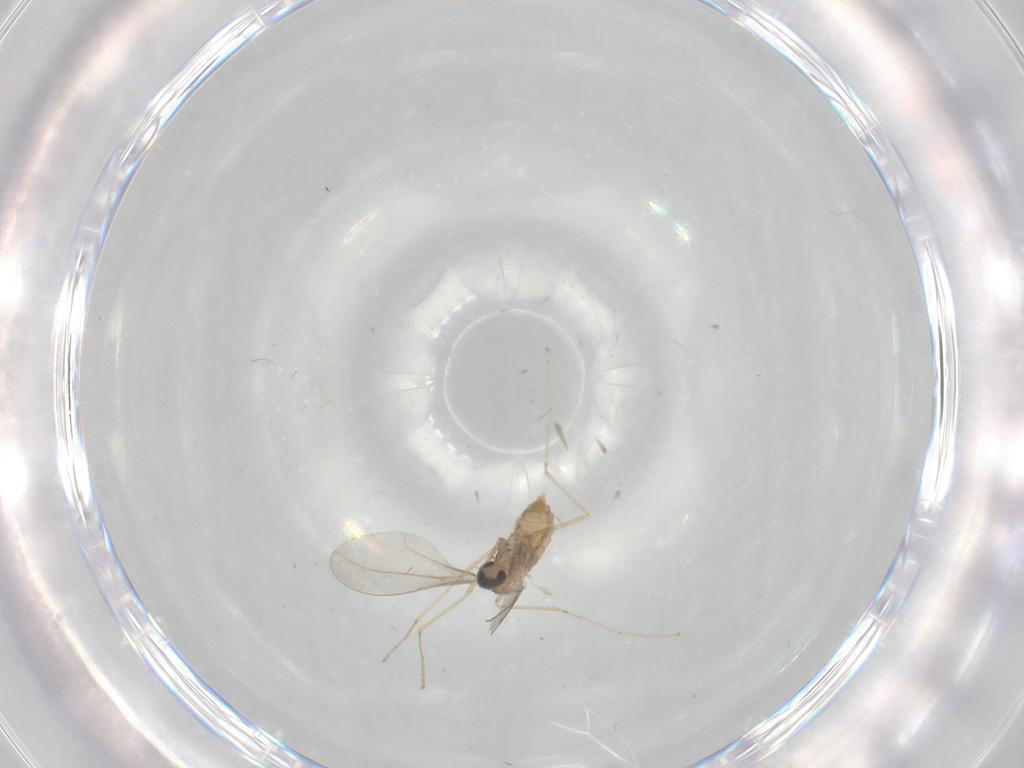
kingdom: Animalia
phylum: Arthropoda
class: Insecta
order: Diptera
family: Cecidomyiidae
